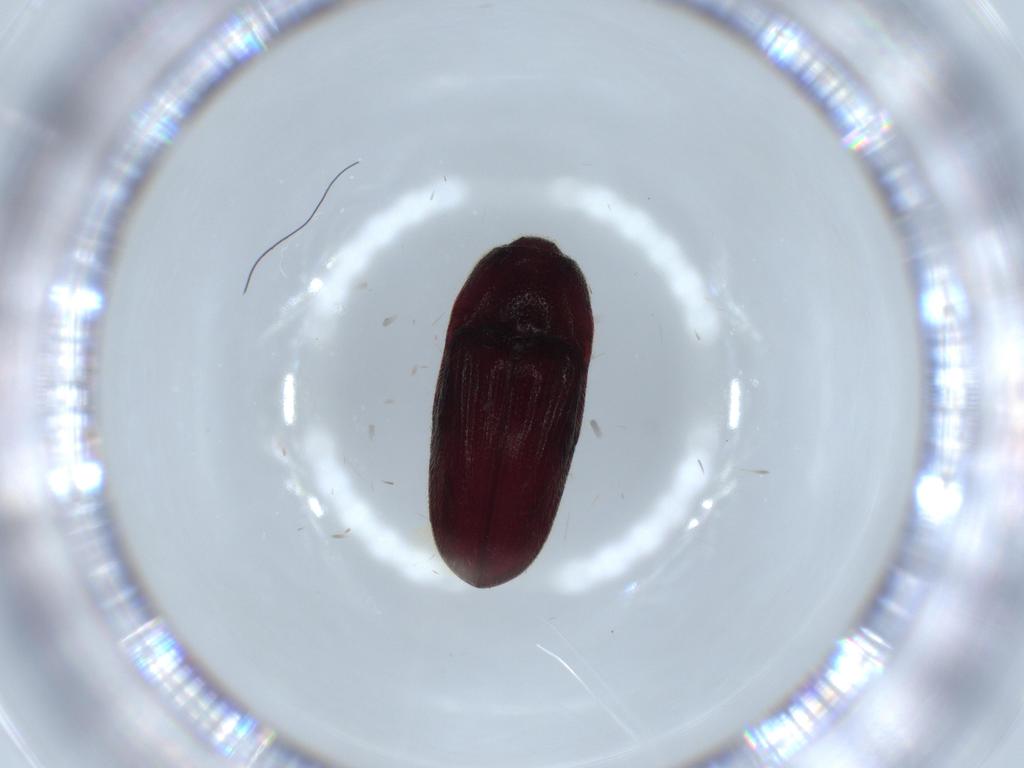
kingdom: Animalia
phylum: Arthropoda
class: Insecta
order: Coleoptera
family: Throscidae
